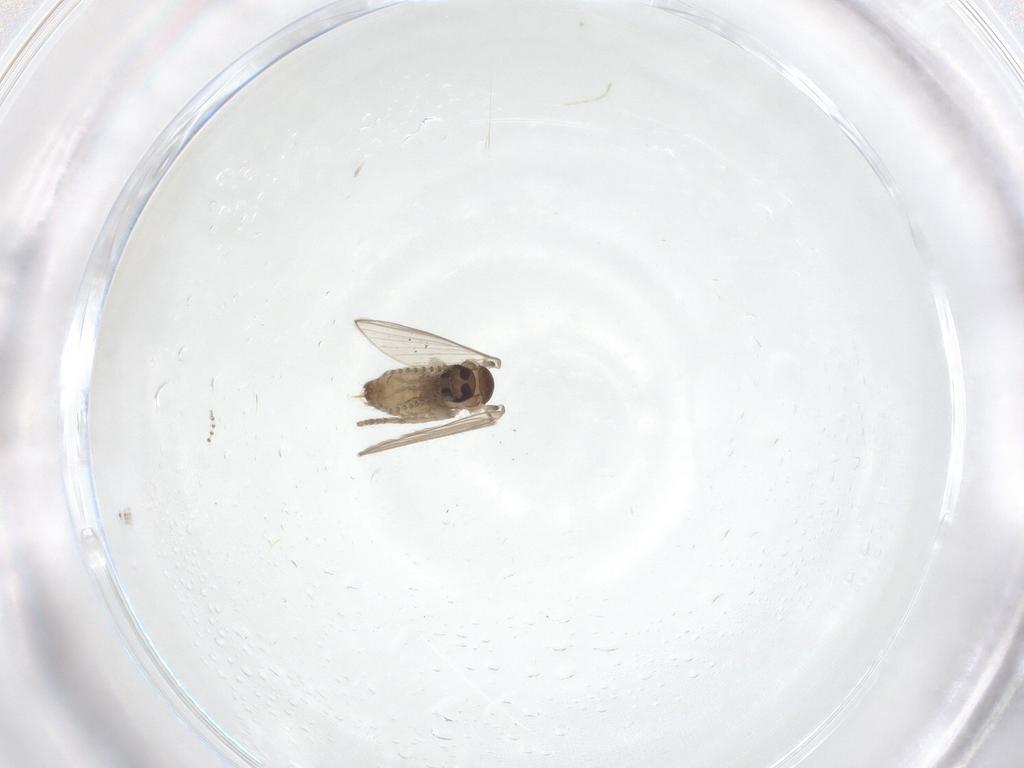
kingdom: Animalia
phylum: Arthropoda
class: Insecta
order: Diptera
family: Psychodidae
